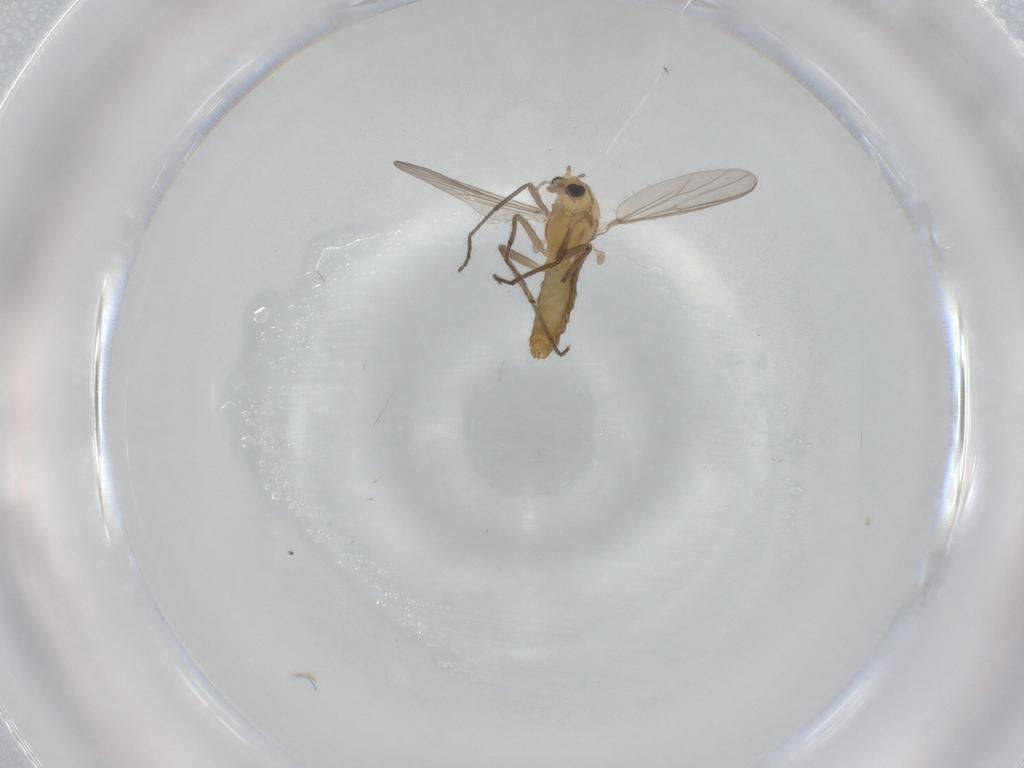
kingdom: Animalia
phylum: Arthropoda
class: Insecta
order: Diptera
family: Chironomidae
